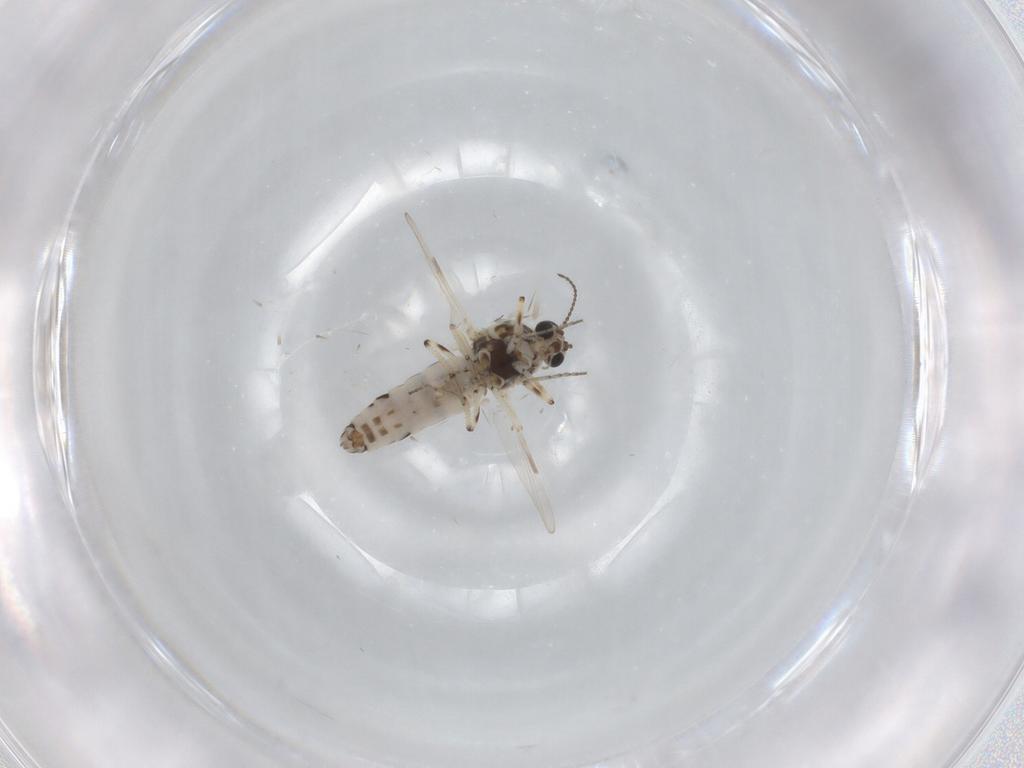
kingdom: Animalia
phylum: Arthropoda
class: Insecta
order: Diptera
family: Ceratopogonidae
